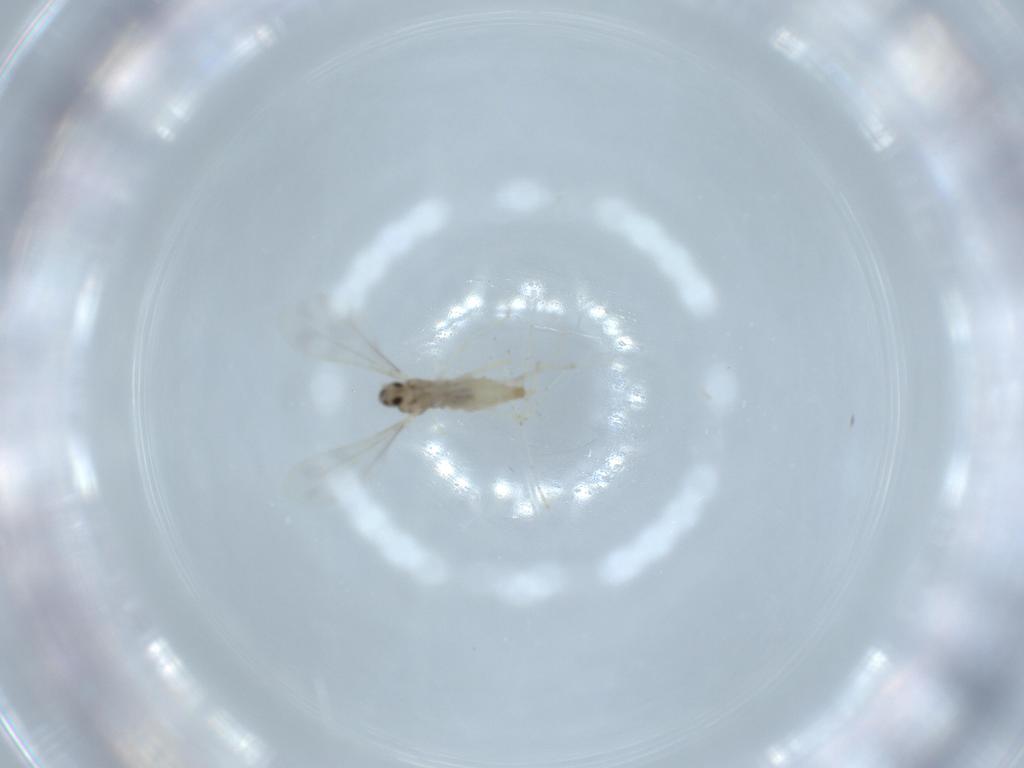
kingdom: Animalia
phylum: Arthropoda
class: Insecta
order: Diptera
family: Cecidomyiidae
